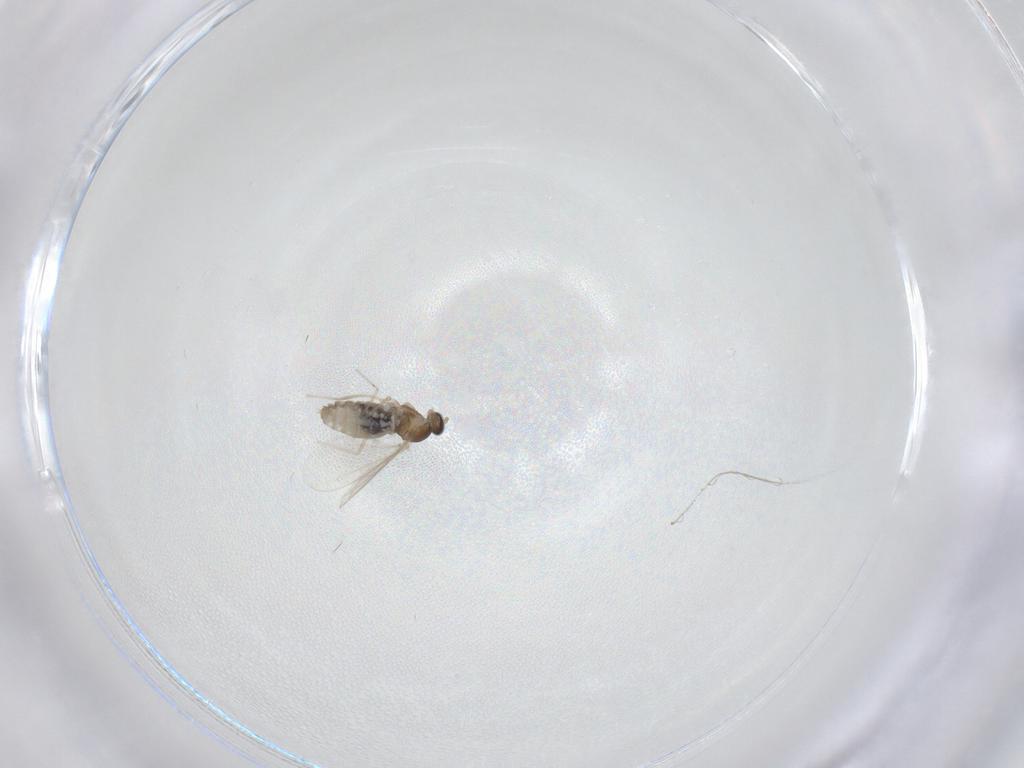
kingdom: Animalia
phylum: Arthropoda
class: Insecta
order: Diptera
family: Cecidomyiidae
